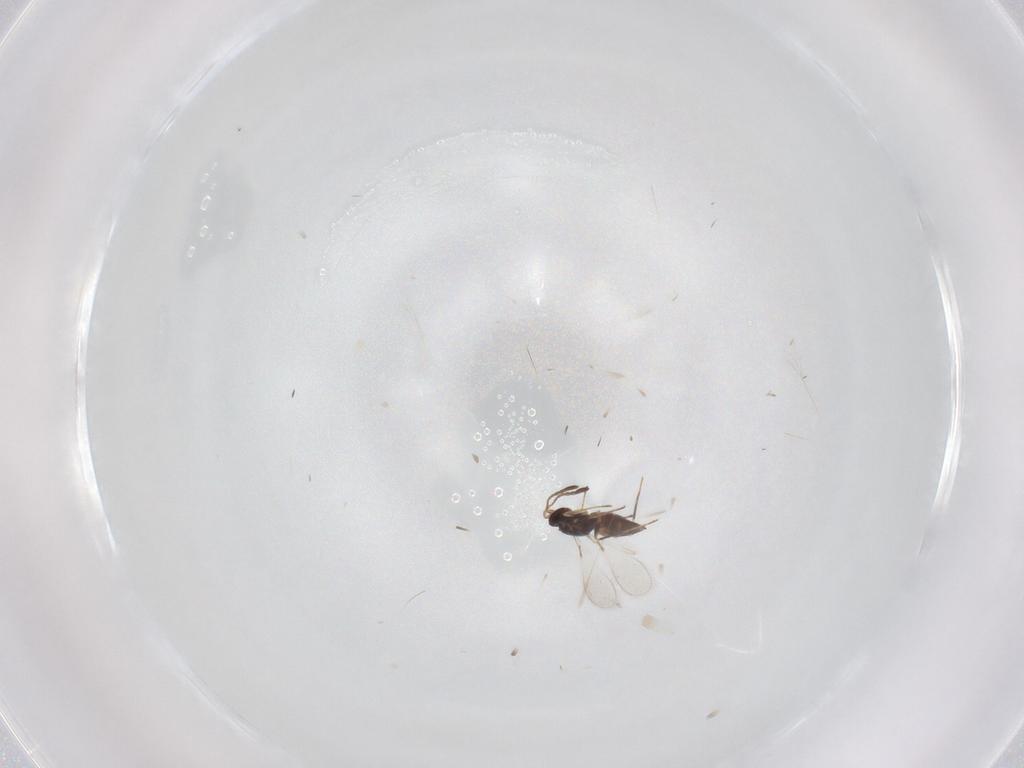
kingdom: Animalia
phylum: Arthropoda
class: Insecta
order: Hymenoptera
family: Mymaridae
